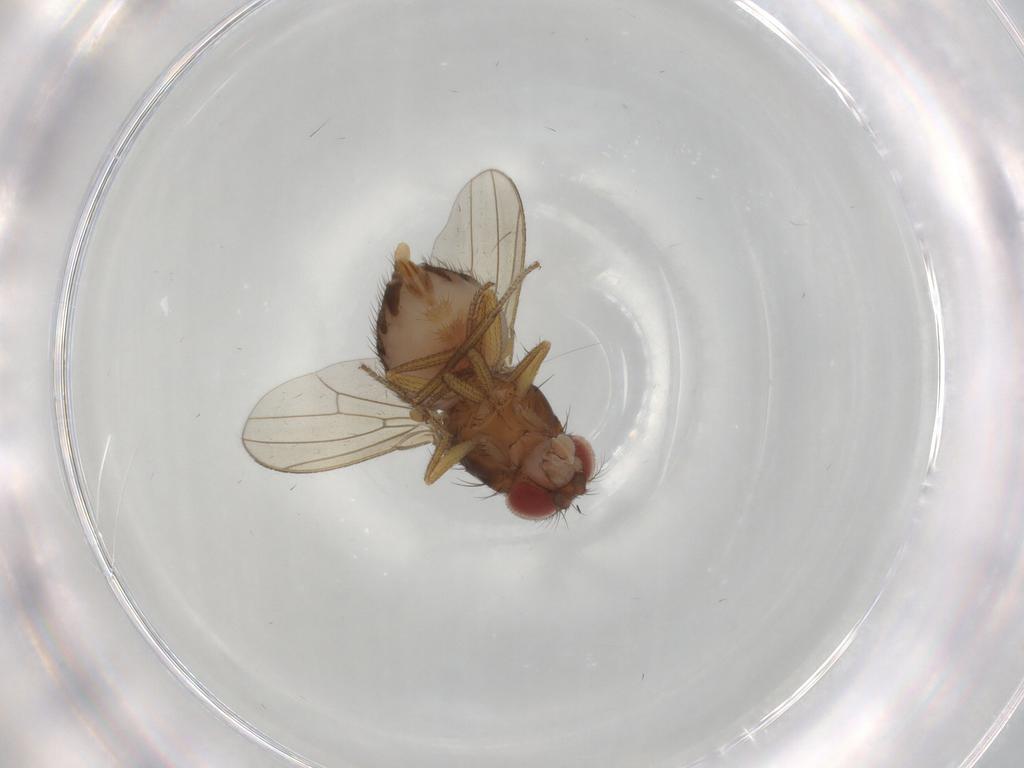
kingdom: Animalia
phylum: Arthropoda
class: Insecta
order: Diptera
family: Drosophilidae
